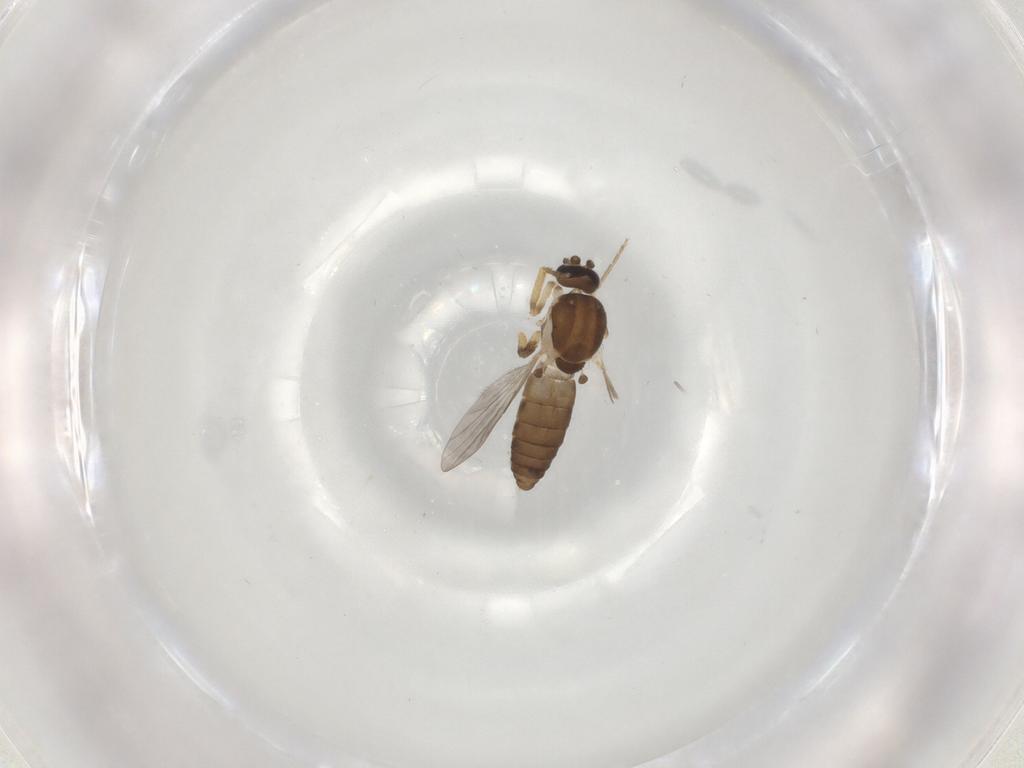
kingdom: Animalia
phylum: Arthropoda
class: Insecta
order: Diptera
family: Ceratopogonidae
